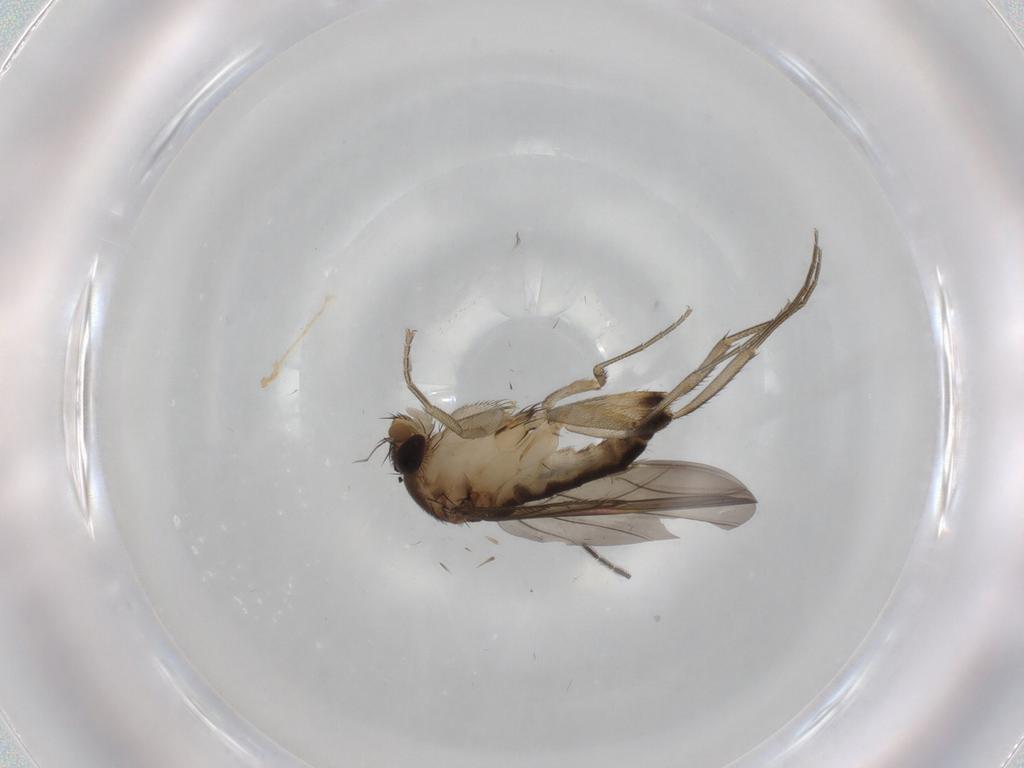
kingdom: Animalia
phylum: Arthropoda
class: Insecta
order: Diptera
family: Phoridae
